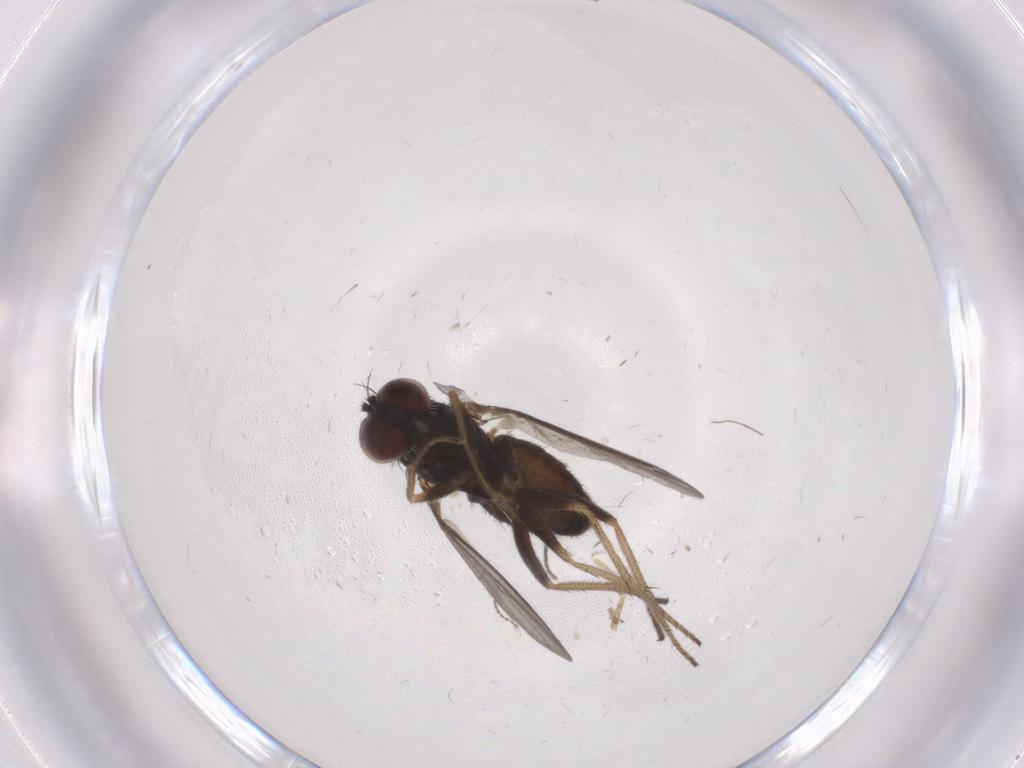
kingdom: Animalia
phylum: Arthropoda
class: Insecta
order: Diptera
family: Dolichopodidae
